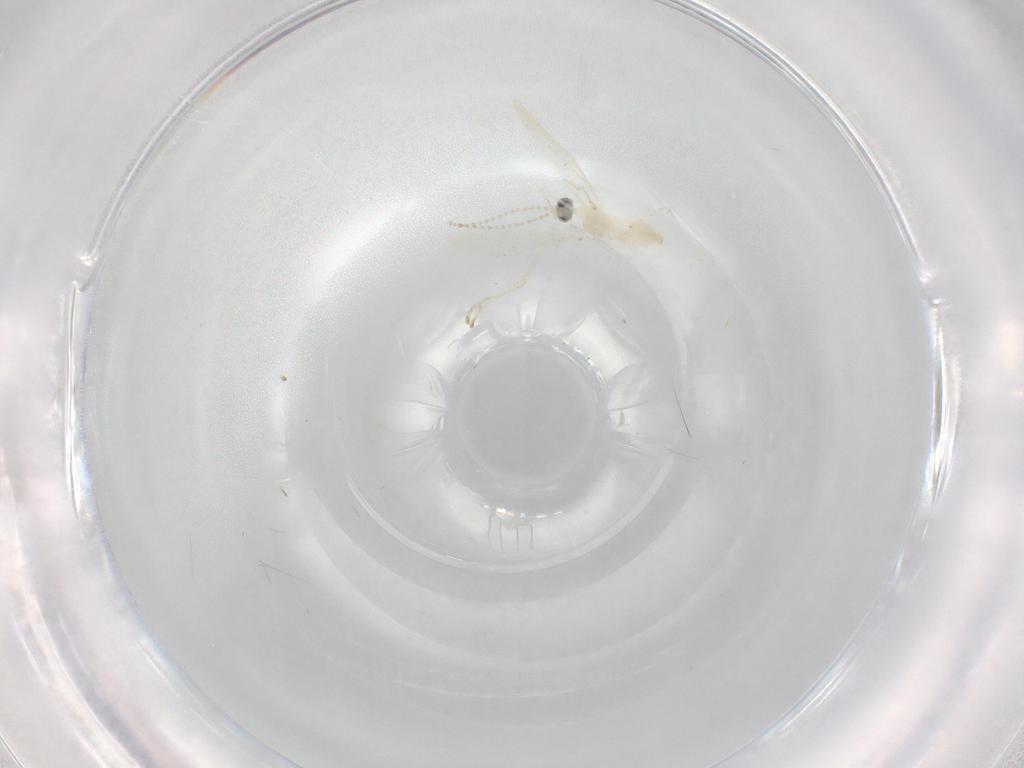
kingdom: Animalia
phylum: Arthropoda
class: Insecta
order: Diptera
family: Cecidomyiidae
